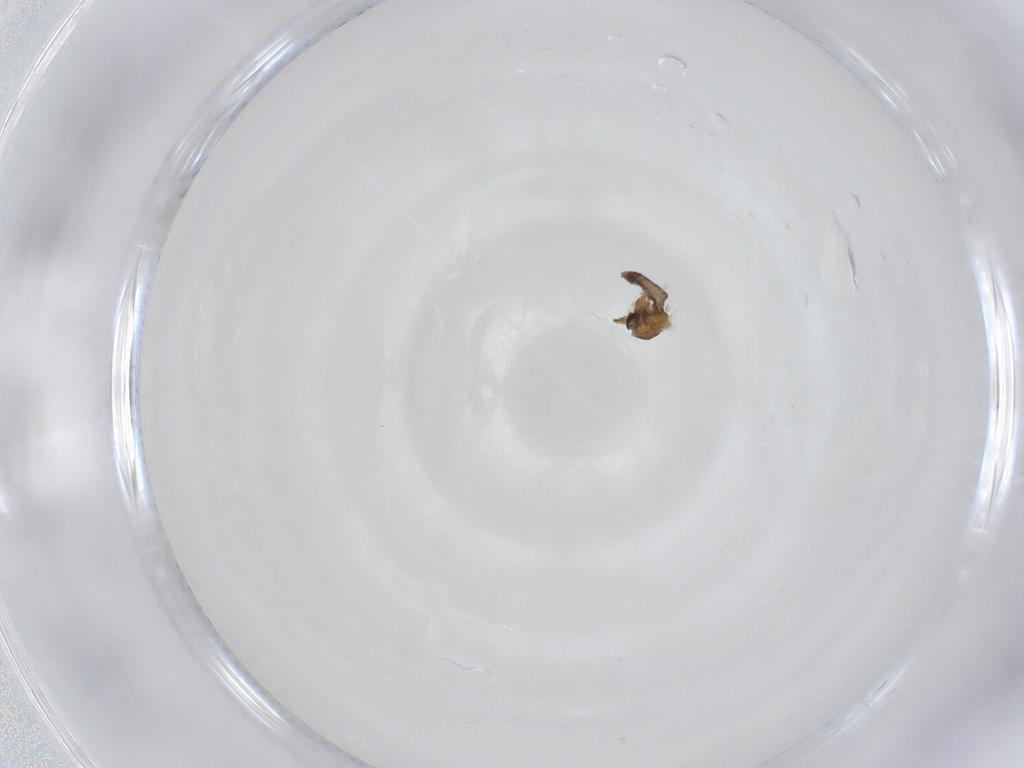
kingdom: Animalia
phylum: Arthropoda
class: Insecta
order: Diptera
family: Ceratopogonidae
